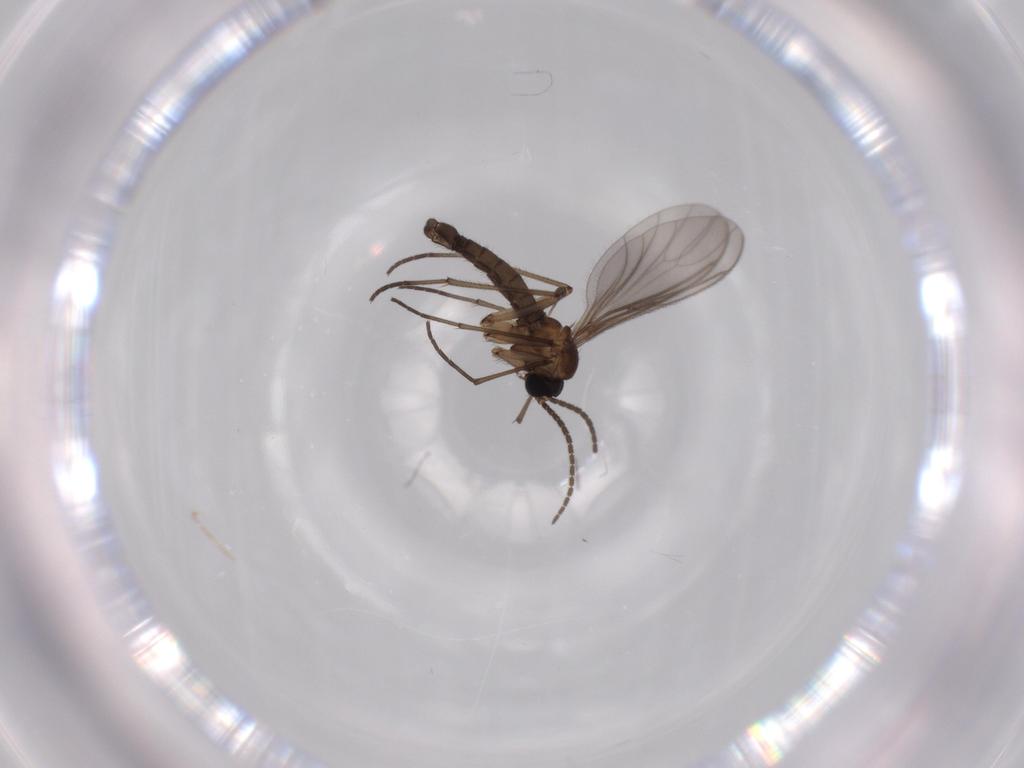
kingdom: Animalia
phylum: Arthropoda
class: Insecta
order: Diptera
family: Sciaridae
